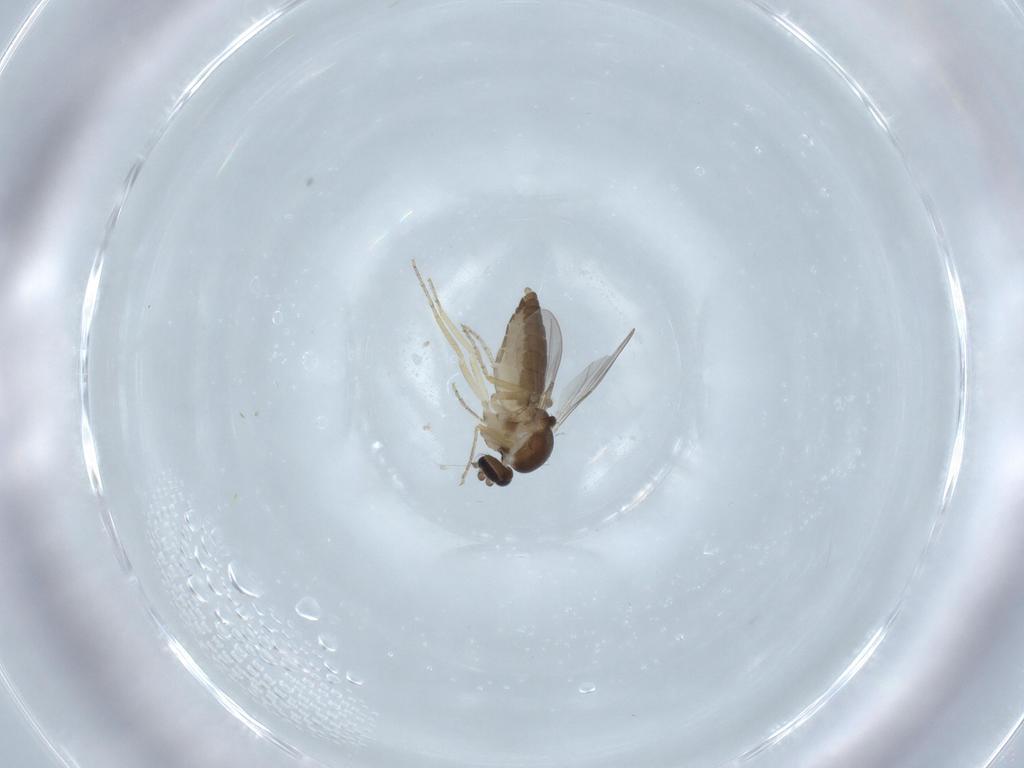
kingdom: Animalia
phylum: Arthropoda
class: Insecta
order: Diptera
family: Ceratopogonidae
